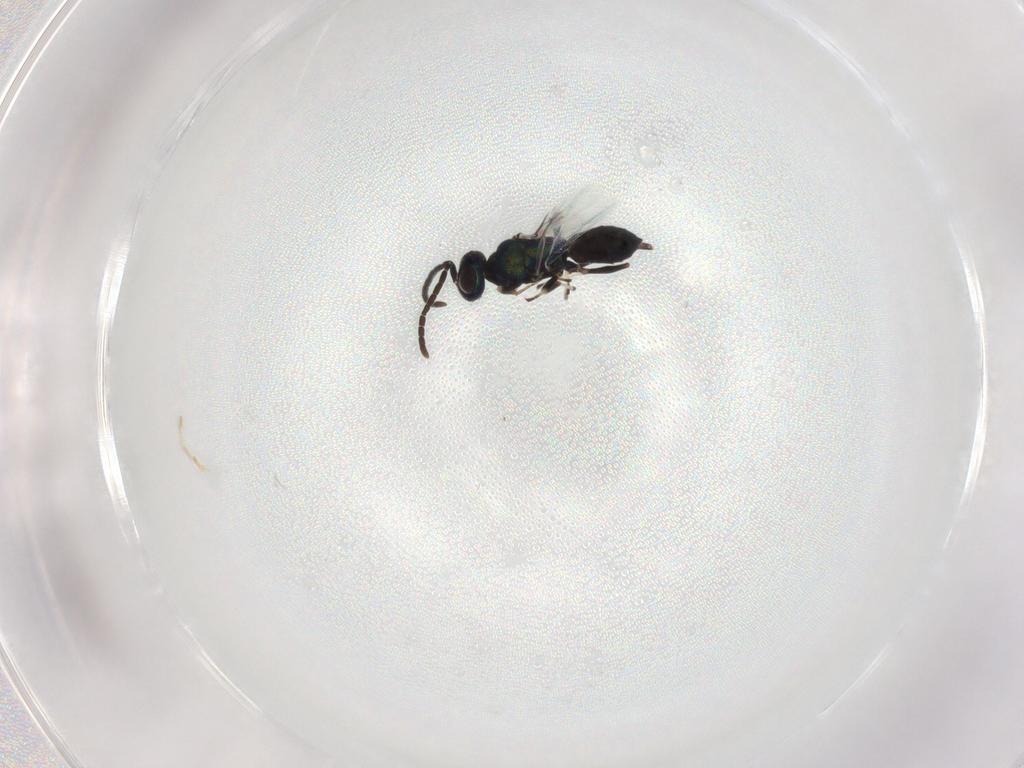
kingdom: Animalia
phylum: Arthropoda
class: Insecta
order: Hymenoptera
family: Eupelmidae
